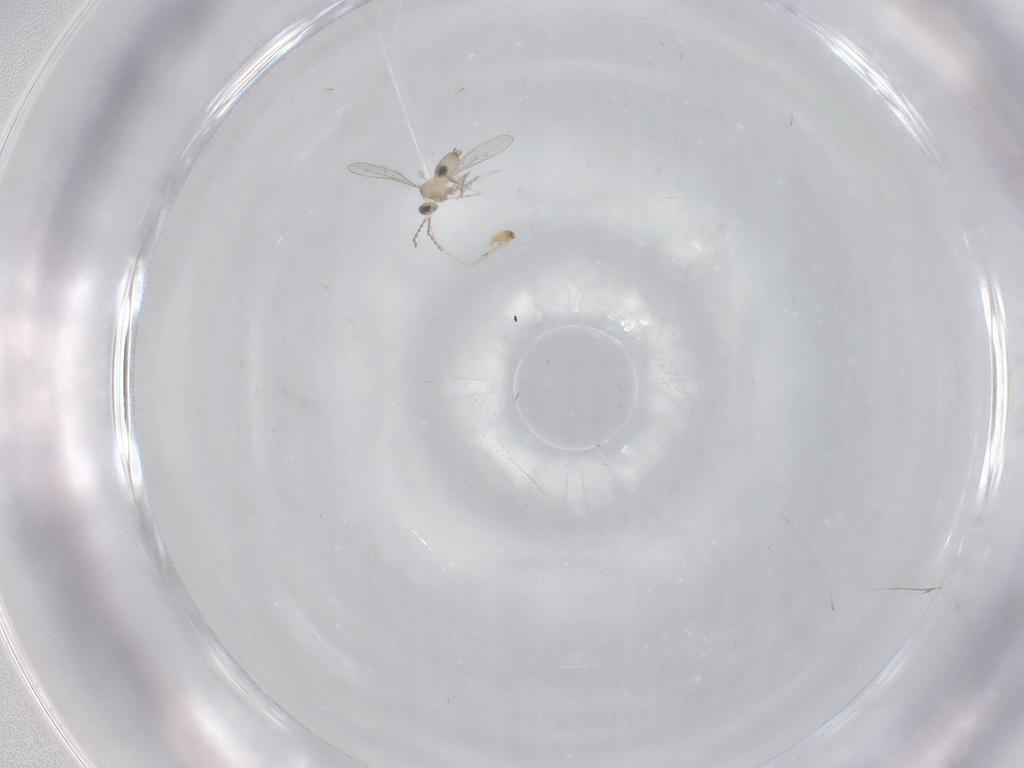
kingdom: Animalia
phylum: Arthropoda
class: Insecta
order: Diptera
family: Cecidomyiidae
